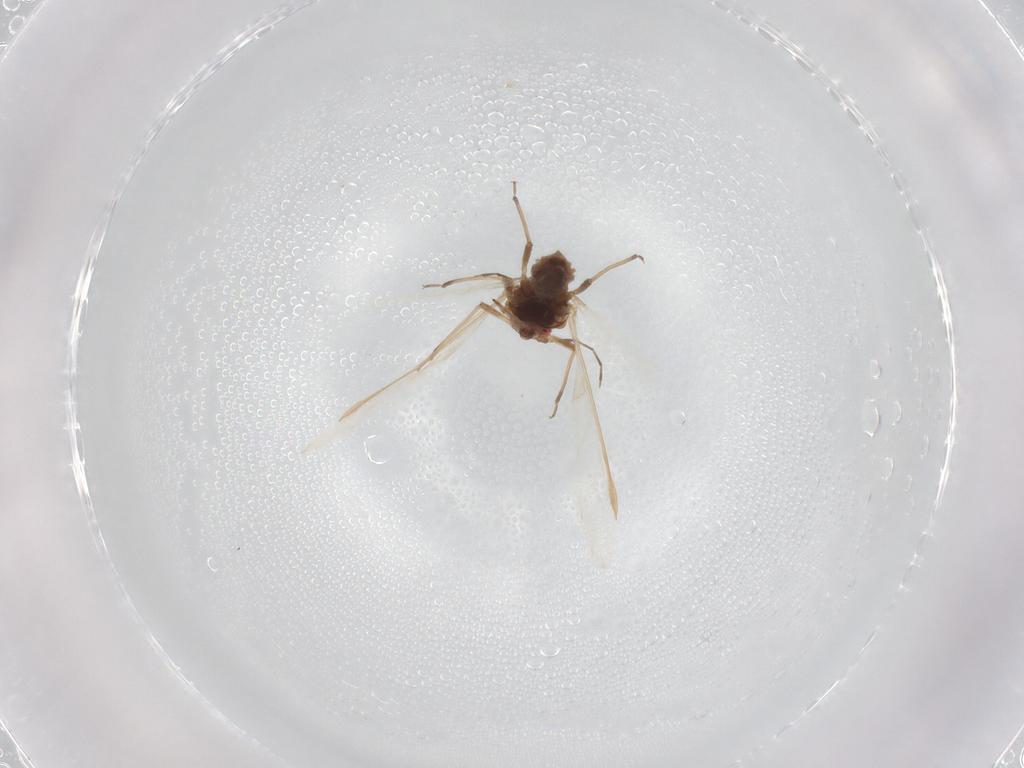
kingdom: Animalia
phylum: Arthropoda
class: Insecta
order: Hemiptera
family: Aphididae
